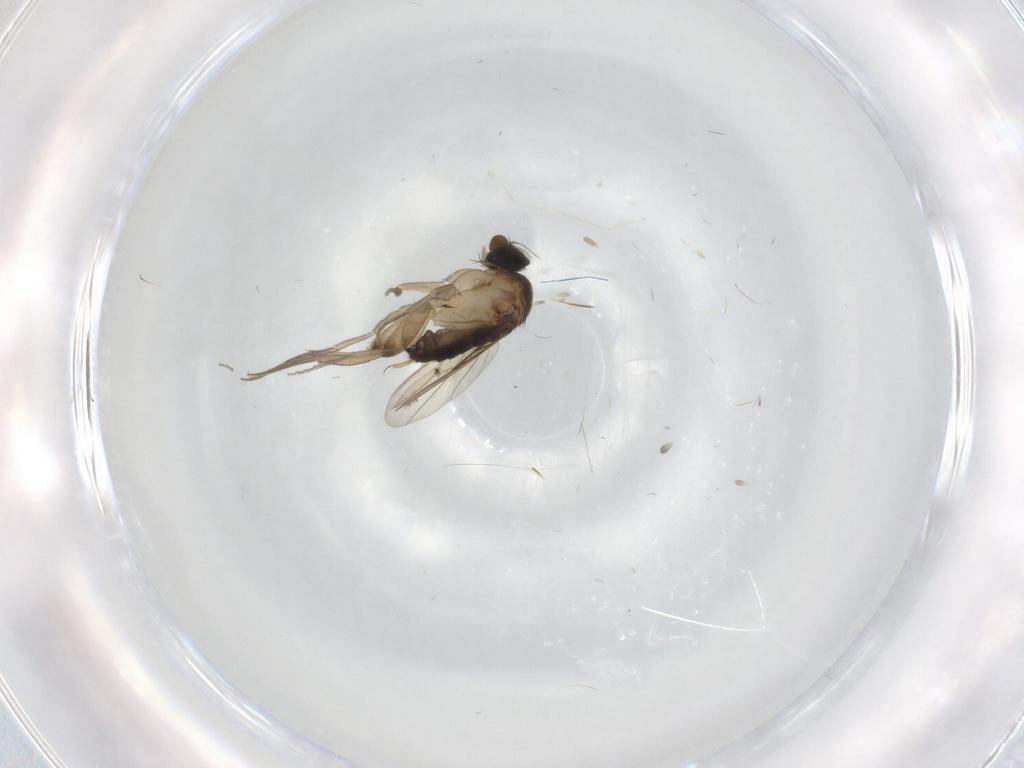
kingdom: Animalia
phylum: Arthropoda
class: Insecta
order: Diptera
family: Phoridae
